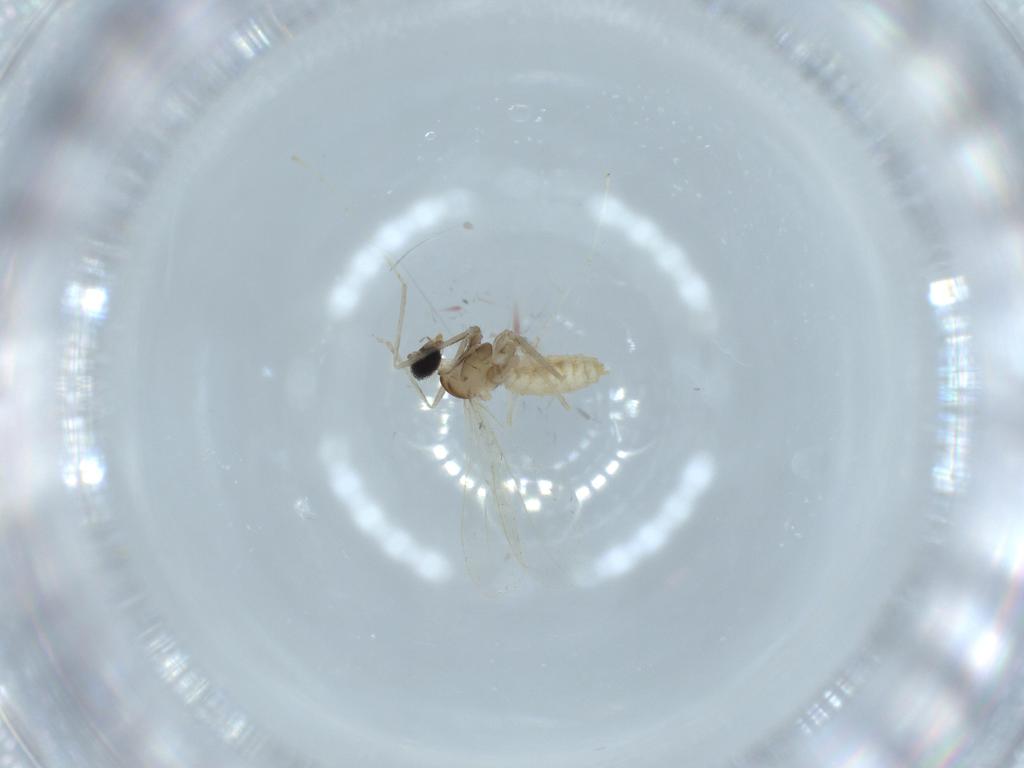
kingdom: Animalia
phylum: Arthropoda
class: Insecta
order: Diptera
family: Cecidomyiidae
